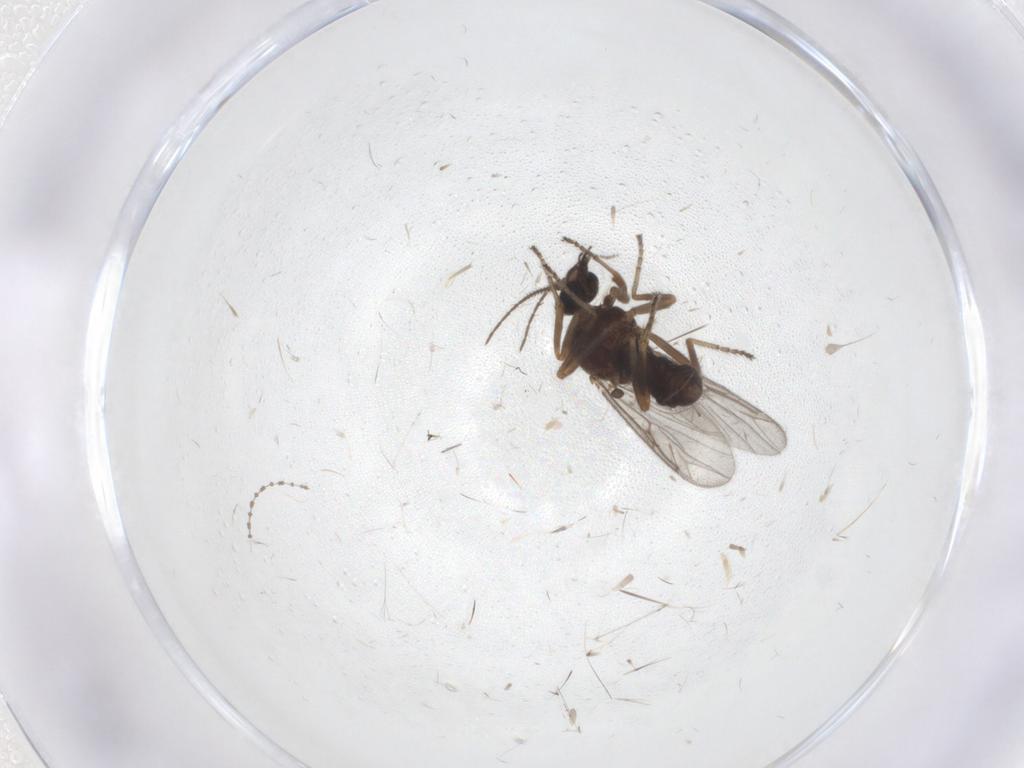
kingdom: Animalia
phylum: Arthropoda
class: Insecta
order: Diptera
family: Ceratopogonidae
